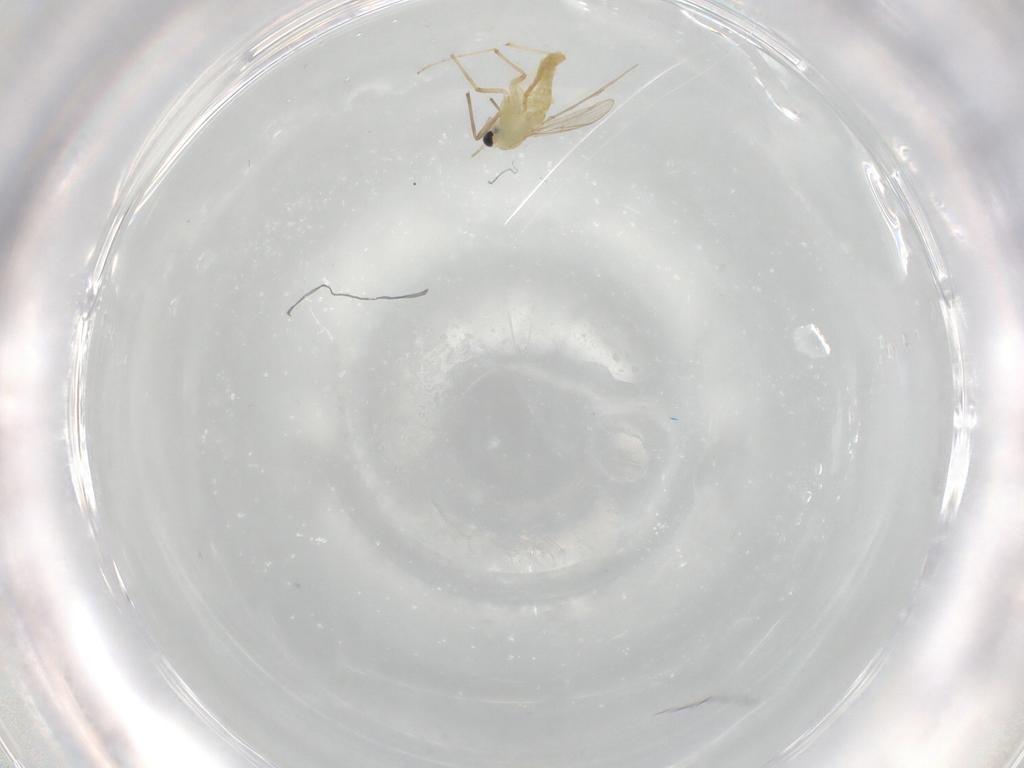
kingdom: Animalia
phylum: Arthropoda
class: Insecta
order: Diptera
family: Chironomidae
